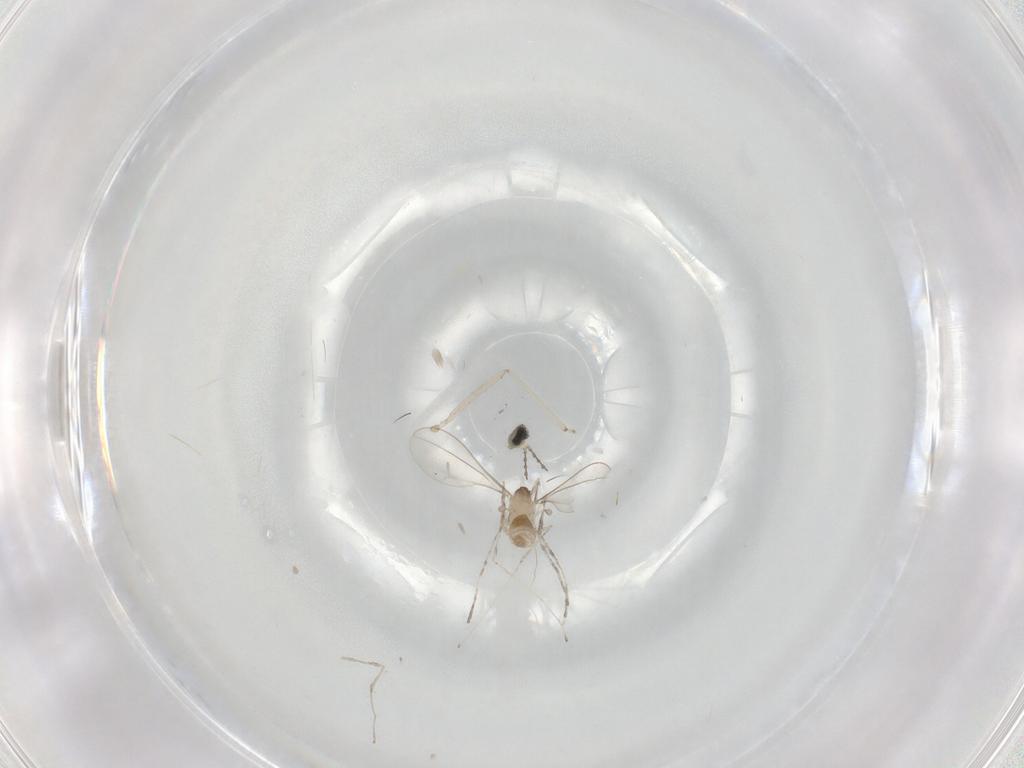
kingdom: Animalia
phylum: Arthropoda
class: Insecta
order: Diptera
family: Cecidomyiidae
